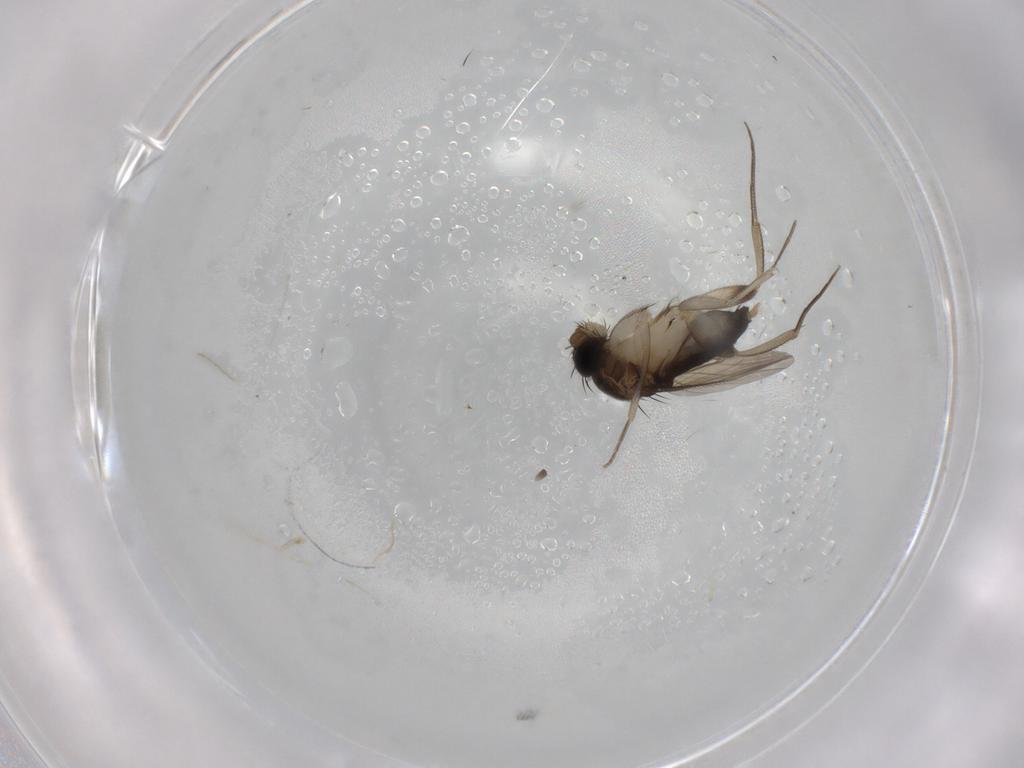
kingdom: Animalia
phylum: Arthropoda
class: Insecta
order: Diptera
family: Phoridae
